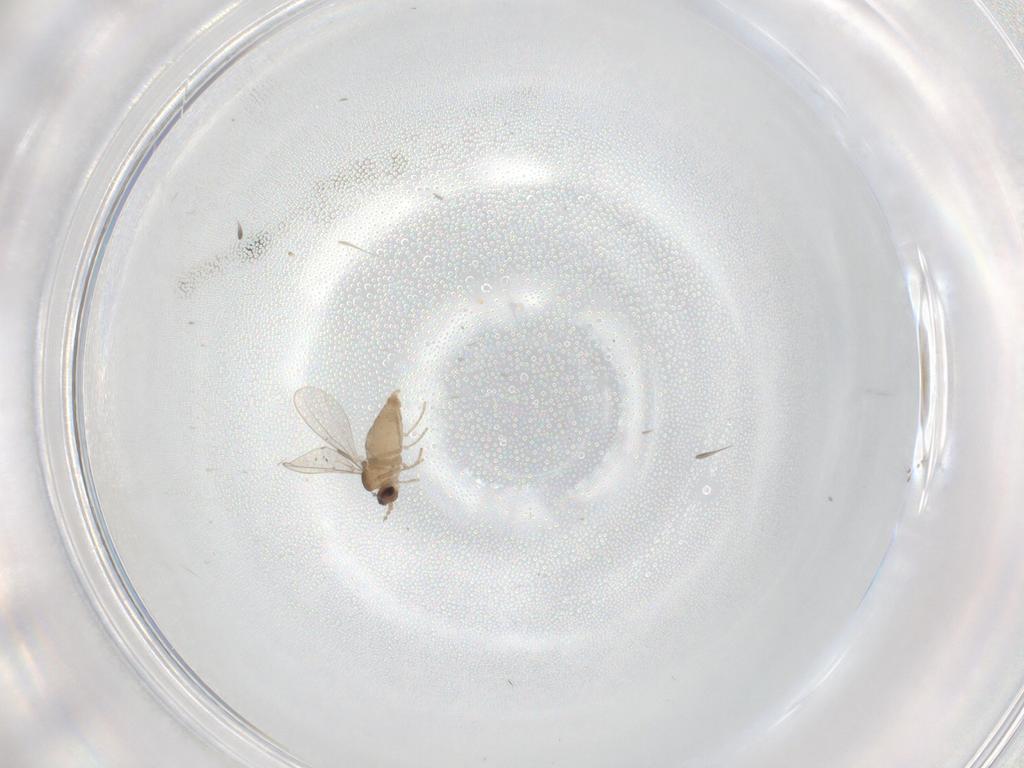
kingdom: Animalia
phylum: Arthropoda
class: Insecta
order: Diptera
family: Cecidomyiidae
